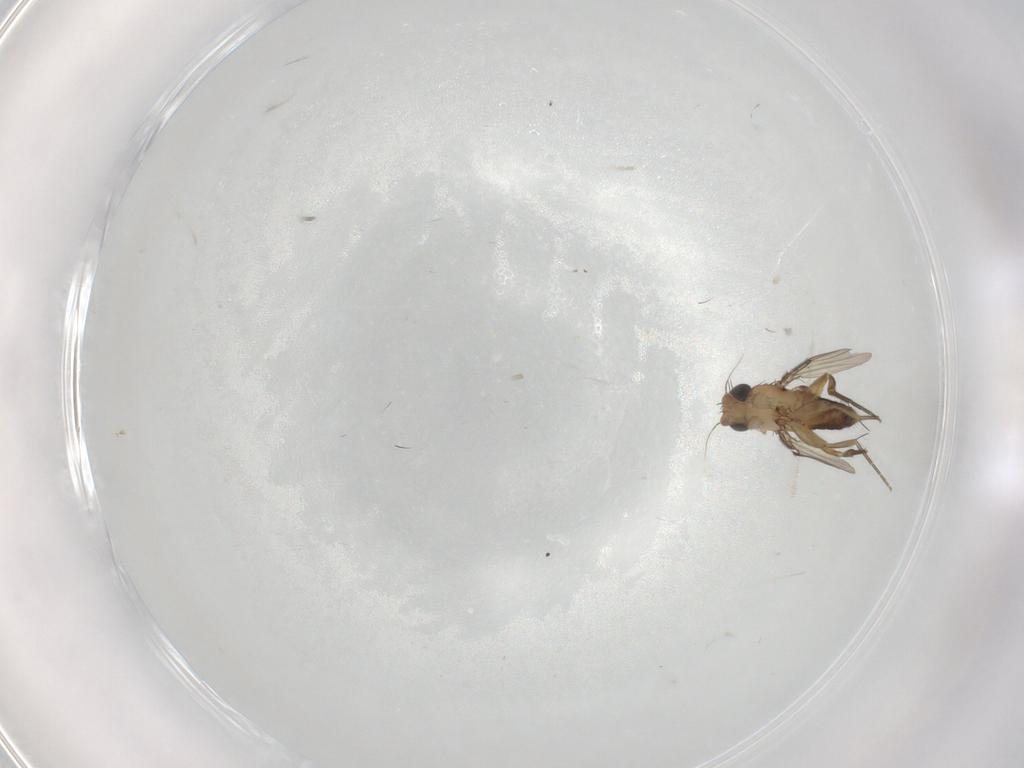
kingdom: Animalia
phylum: Arthropoda
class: Insecta
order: Diptera
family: Phoridae
